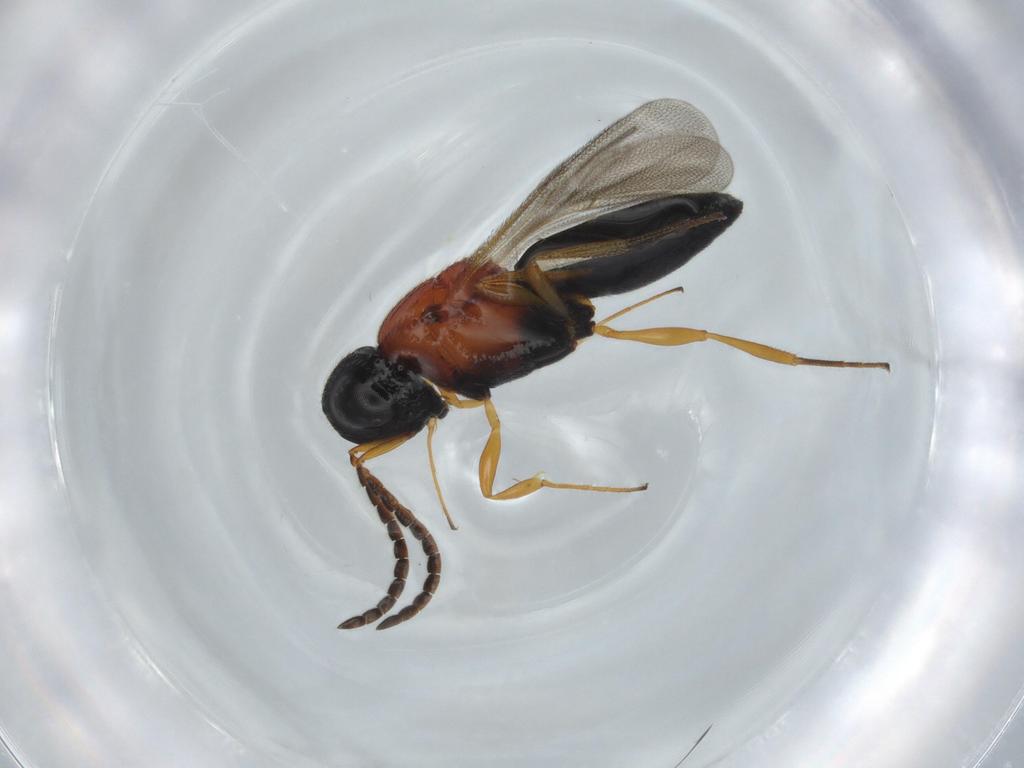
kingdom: Animalia
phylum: Arthropoda
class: Insecta
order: Hymenoptera
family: Scelionidae
